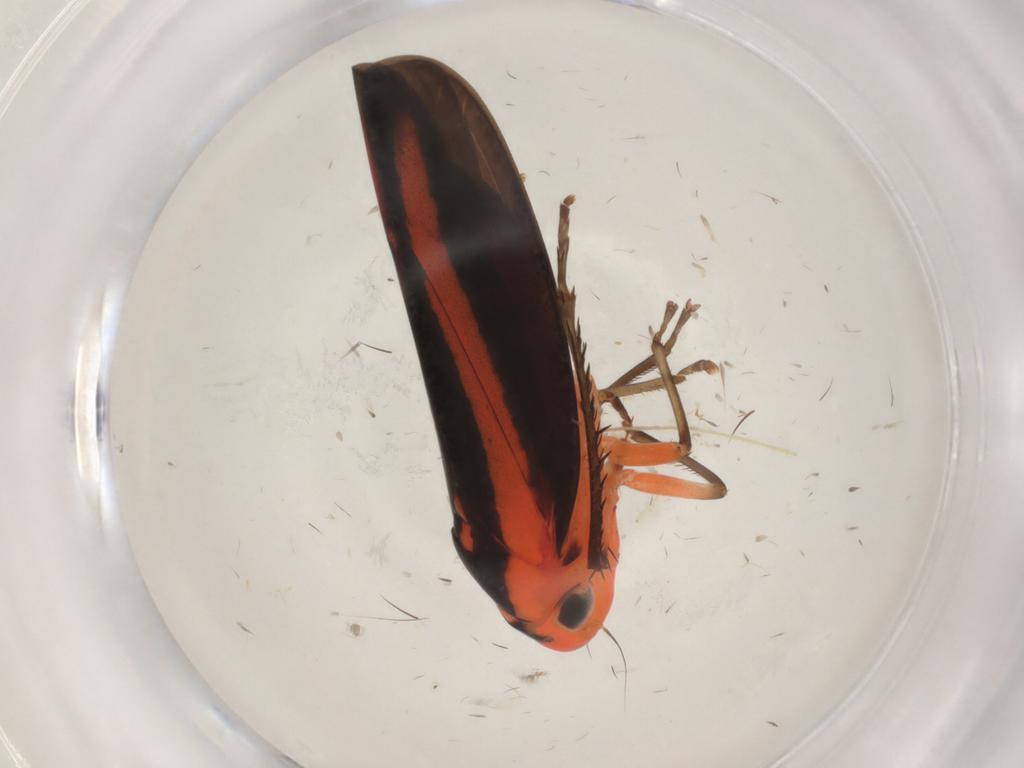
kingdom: Animalia
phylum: Arthropoda
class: Insecta
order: Hemiptera
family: Cicadellidae
